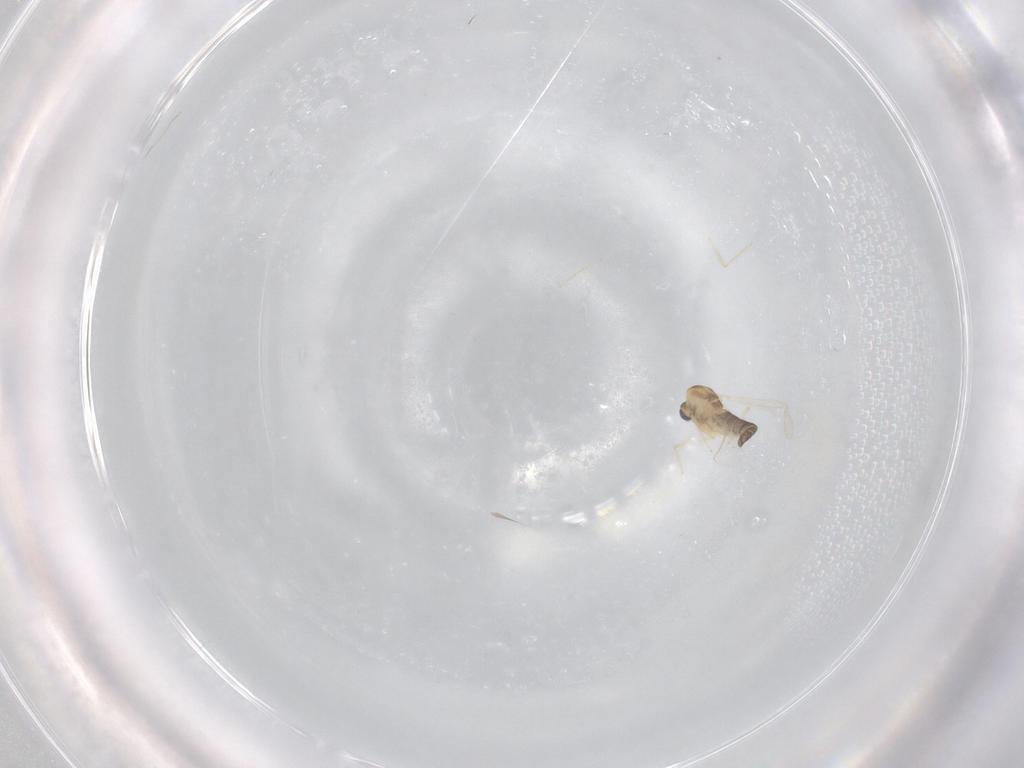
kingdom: Animalia
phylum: Arthropoda
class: Insecta
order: Diptera
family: Chironomidae
